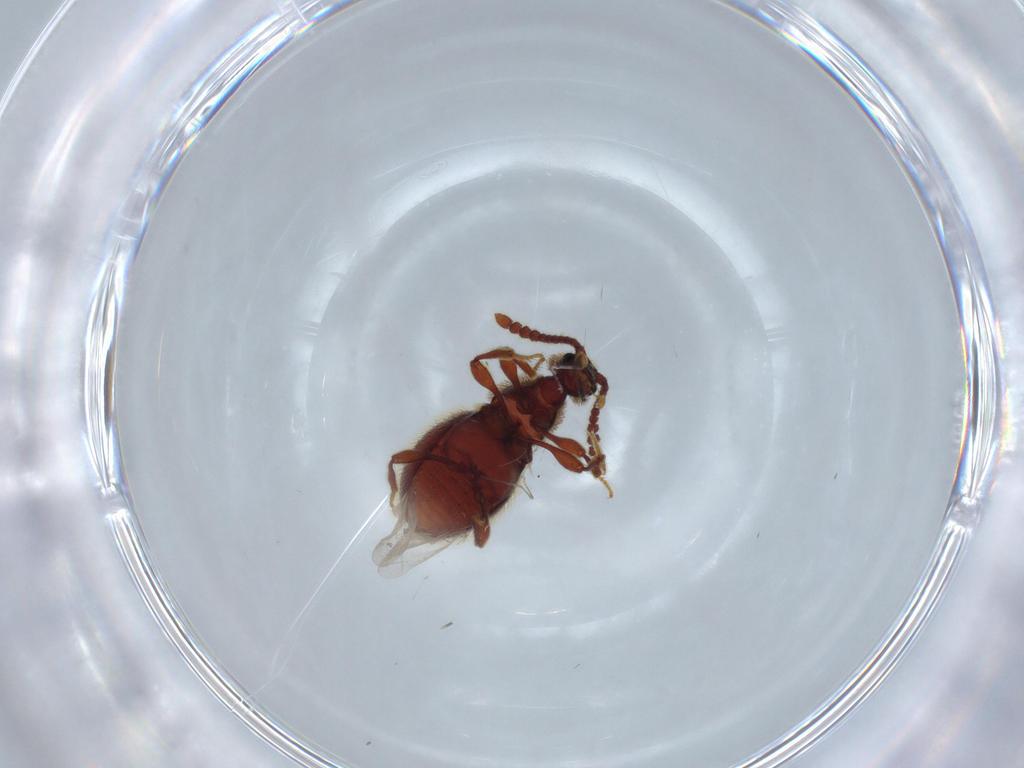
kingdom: Animalia
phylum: Arthropoda
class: Insecta
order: Coleoptera
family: Staphylinidae
